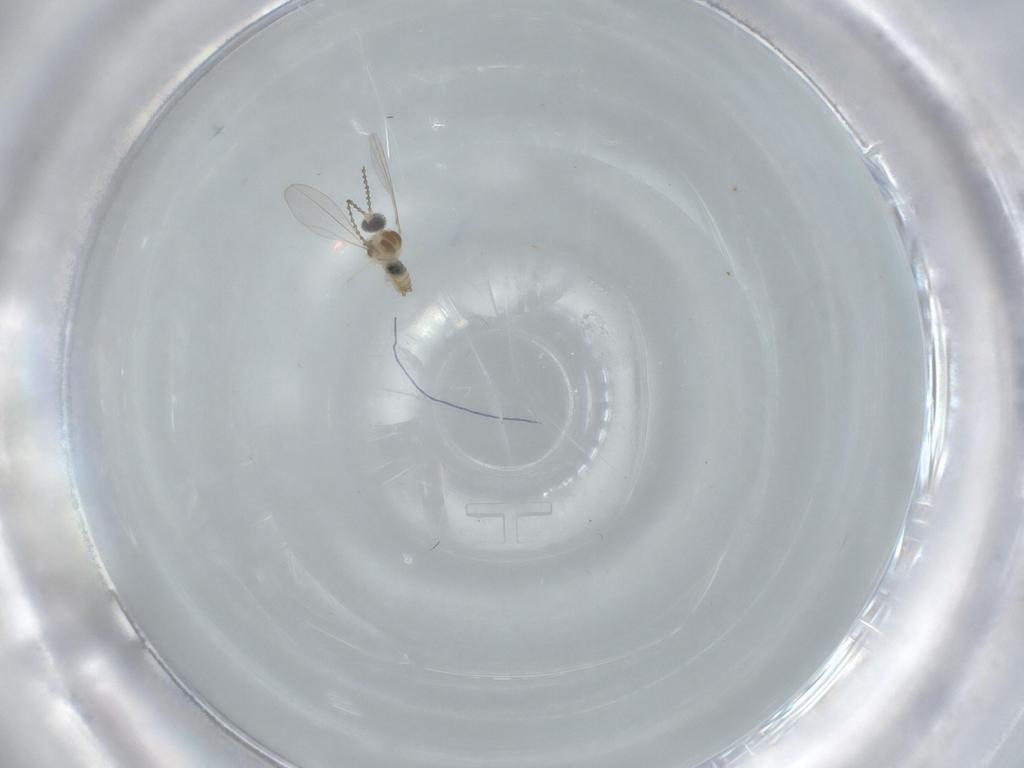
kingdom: Animalia
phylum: Arthropoda
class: Insecta
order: Diptera
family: Cecidomyiidae
